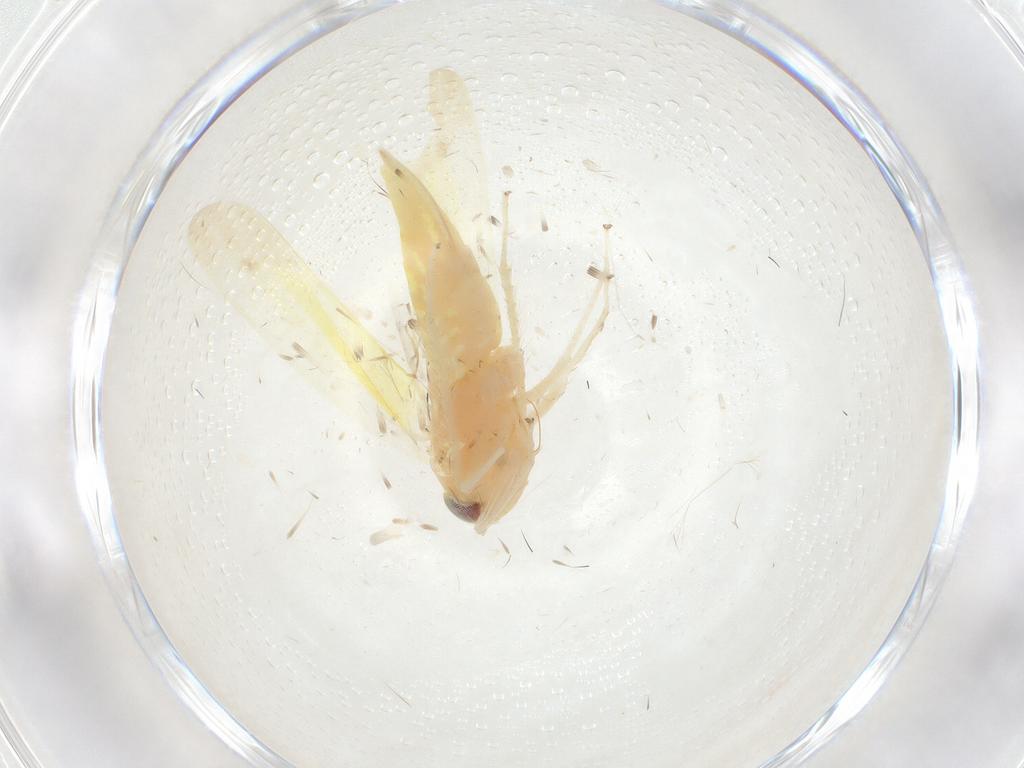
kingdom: Animalia
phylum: Arthropoda
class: Insecta
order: Hemiptera
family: Cicadellidae
